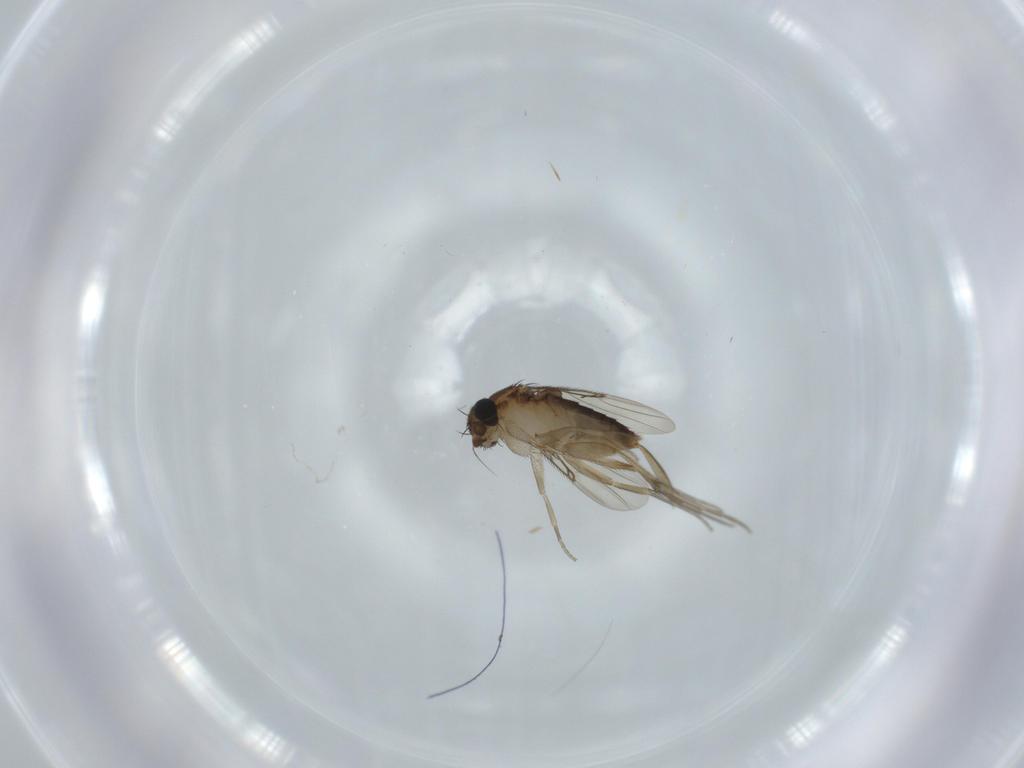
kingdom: Animalia
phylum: Arthropoda
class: Insecta
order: Diptera
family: Phoridae
